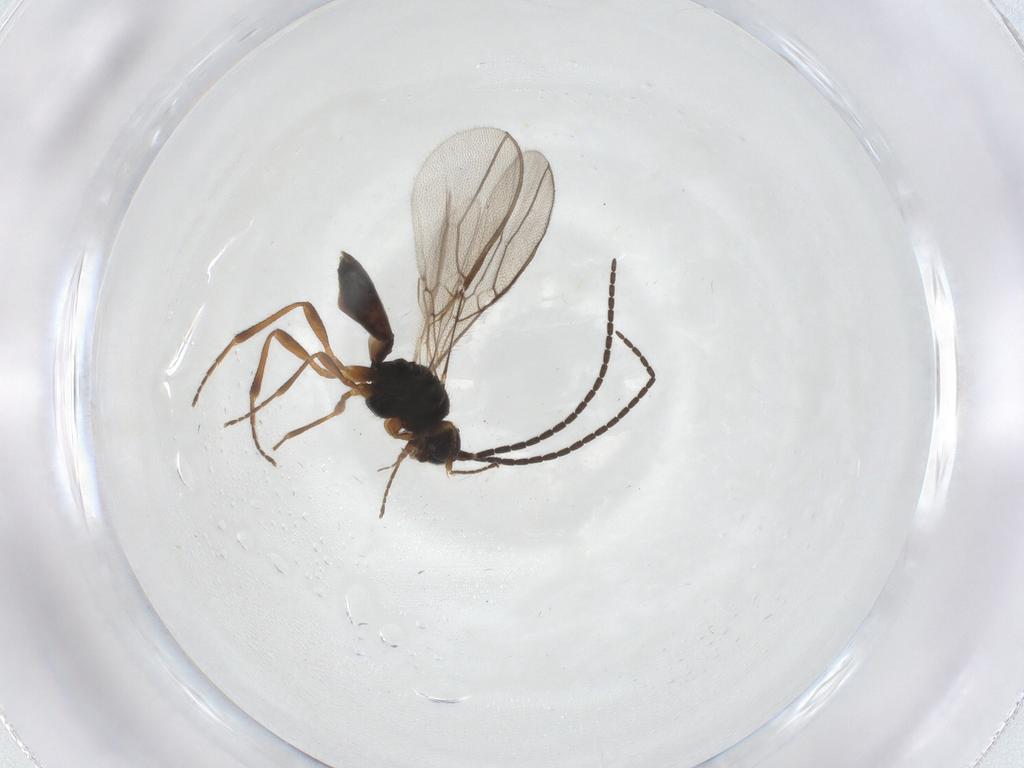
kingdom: Animalia
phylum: Arthropoda
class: Insecta
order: Hymenoptera
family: Braconidae
